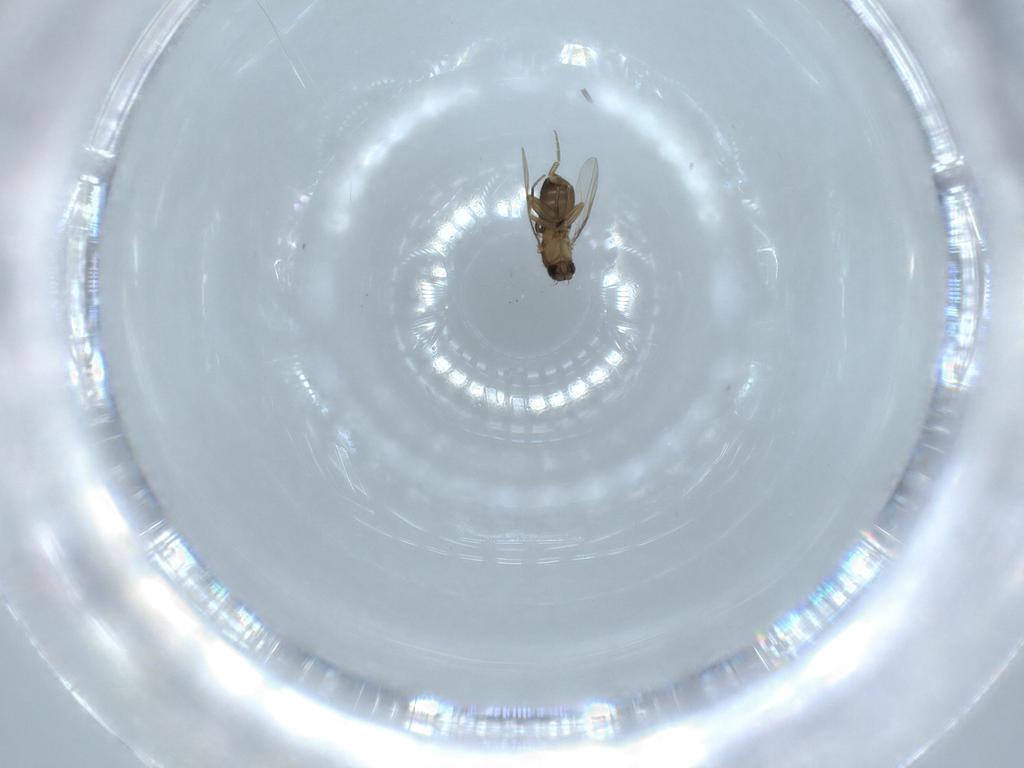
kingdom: Animalia
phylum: Arthropoda
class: Insecta
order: Diptera
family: Phoridae
